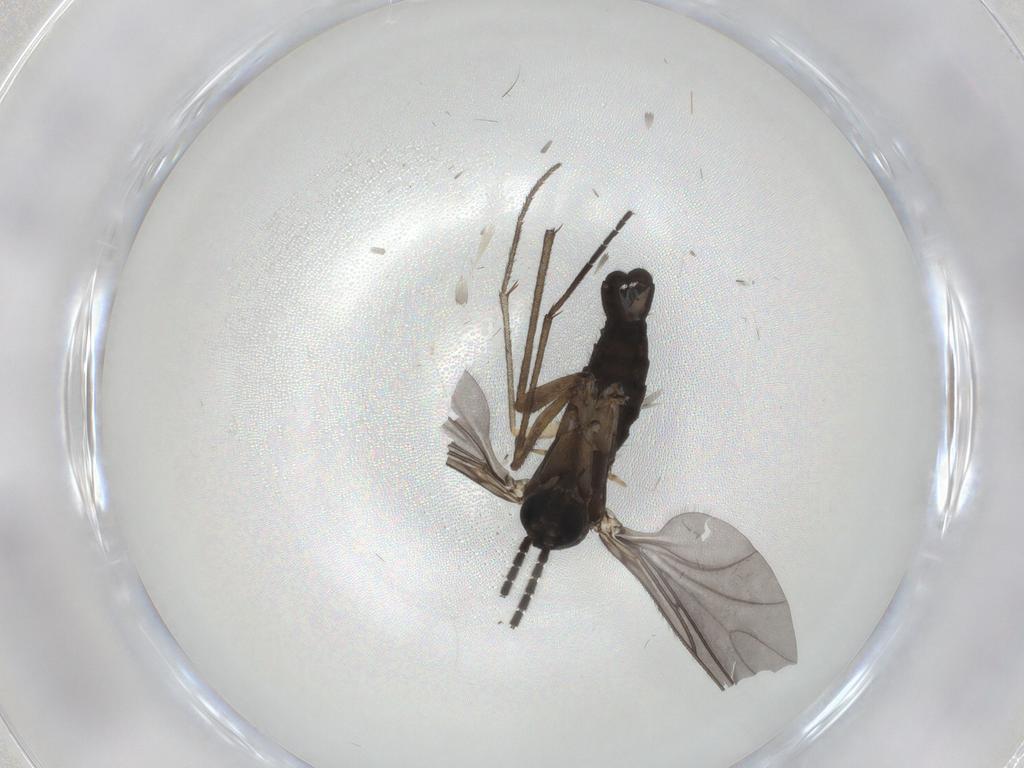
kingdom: Animalia
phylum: Arthropoda
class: Insecta
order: Diptera
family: Sciaridae
